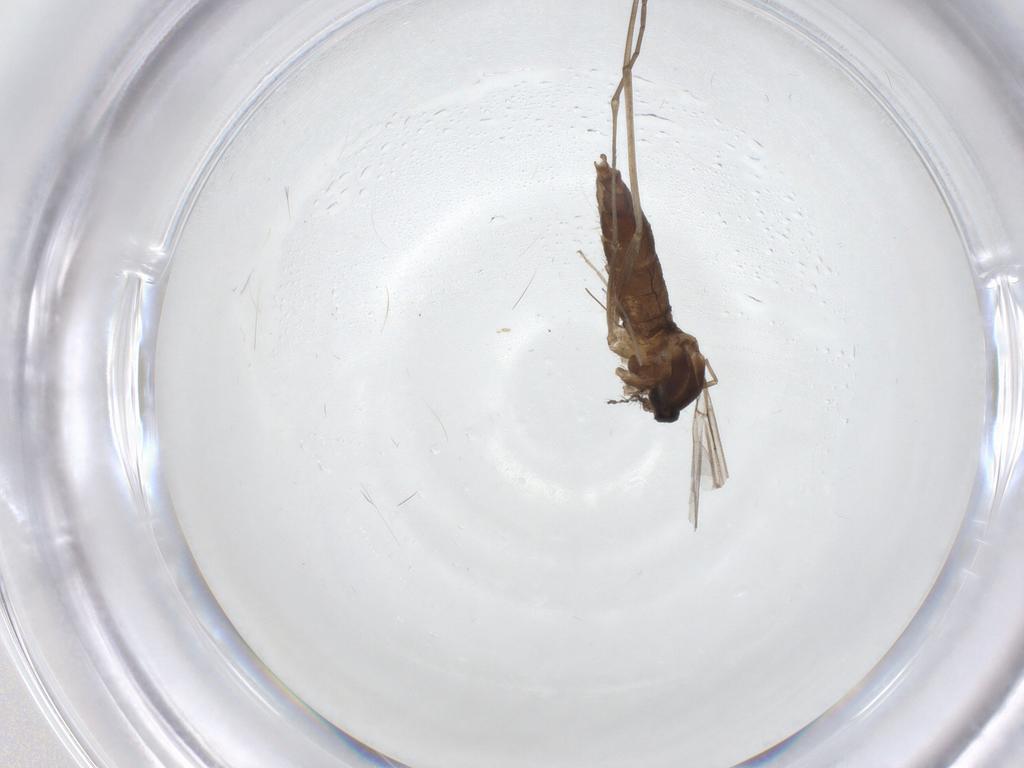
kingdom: Animalia
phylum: Arthropoda
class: Insecta
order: Diptera
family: Cecidomyiidae
